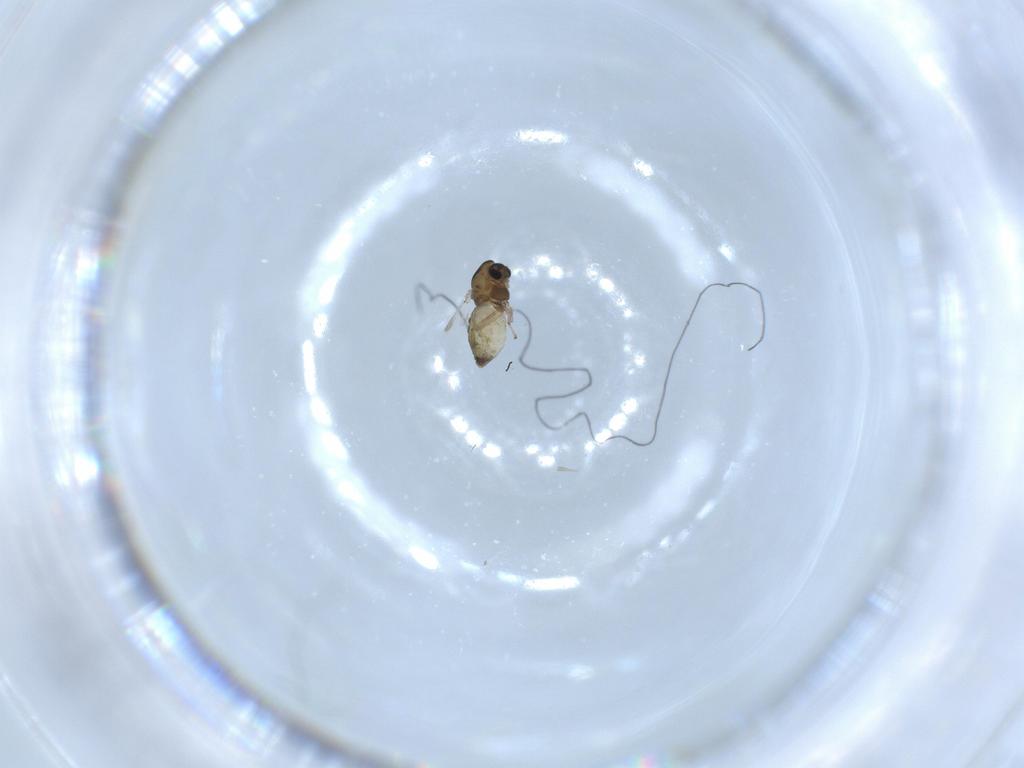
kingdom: Animalia
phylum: Arthropoda
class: Insecta
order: Diptera
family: Chironomidae
